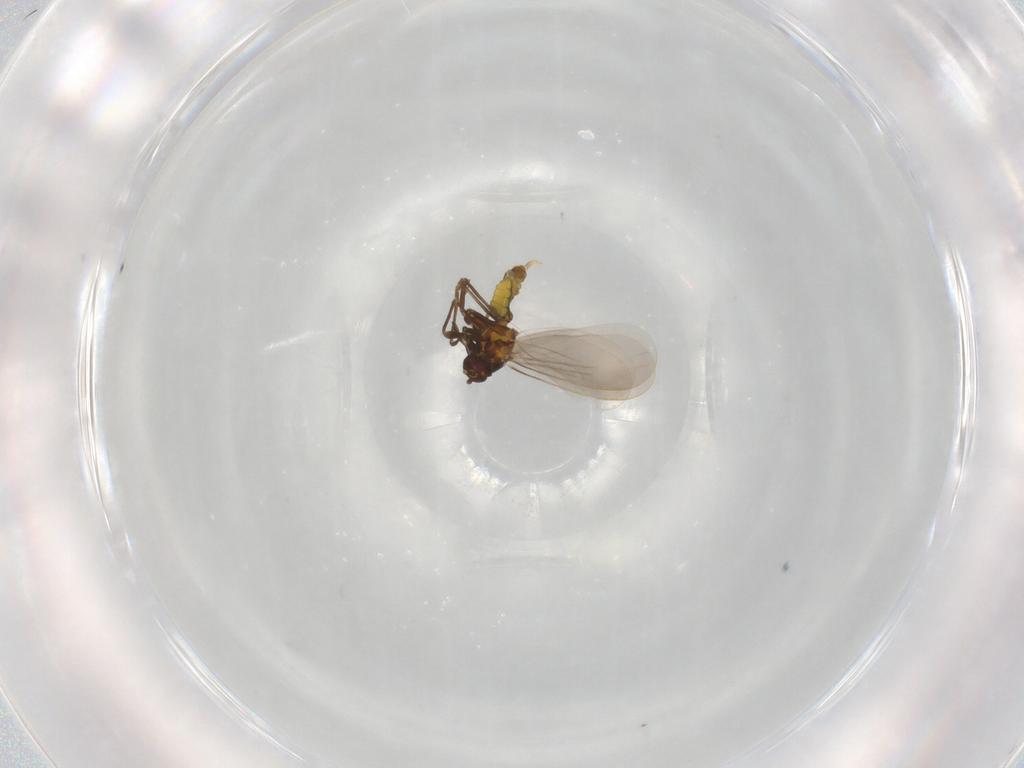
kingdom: Animalia
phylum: Arthropoda
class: Insecta
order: Hemiptera
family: Aleyrodidae
